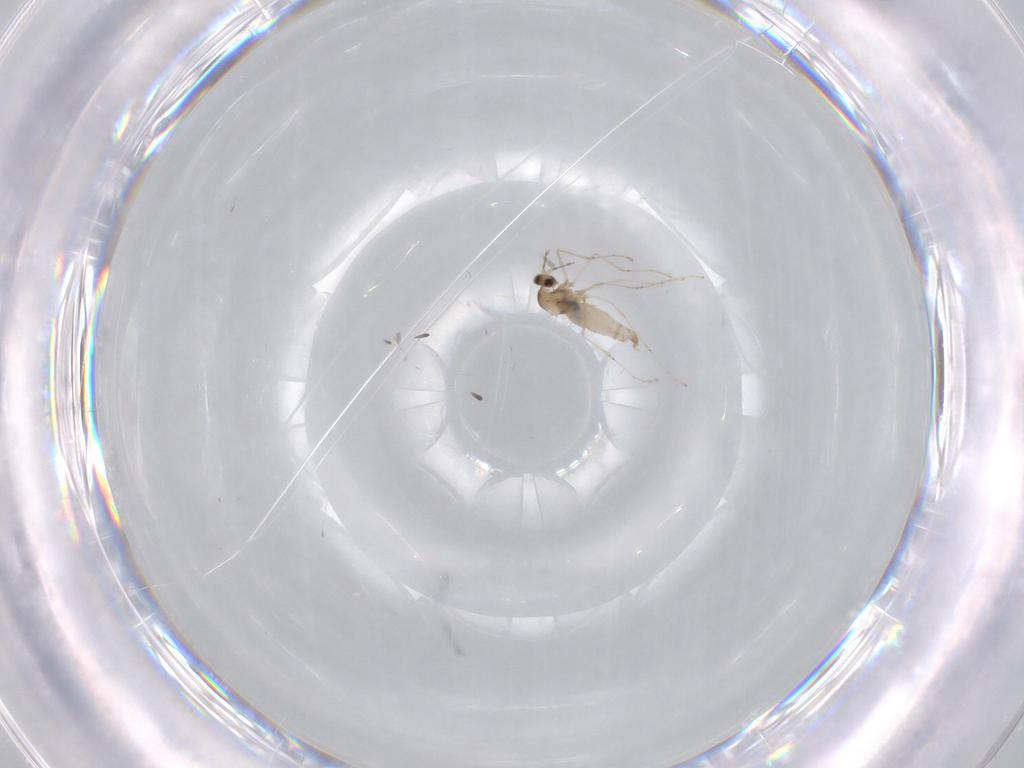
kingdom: Animalia
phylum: Arthropoda
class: Insecta
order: Diptera
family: Cecidomyiidae
